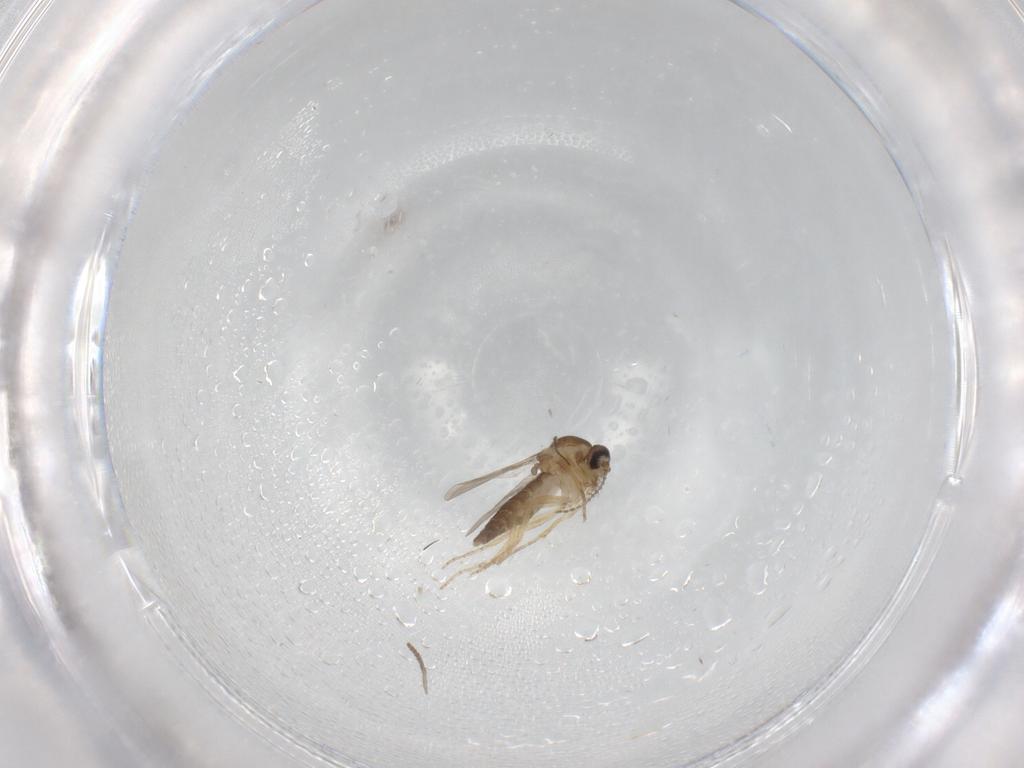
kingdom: Animalia
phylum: Arthropoda
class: Insecta
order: Diptera
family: Ceratopogonidae
